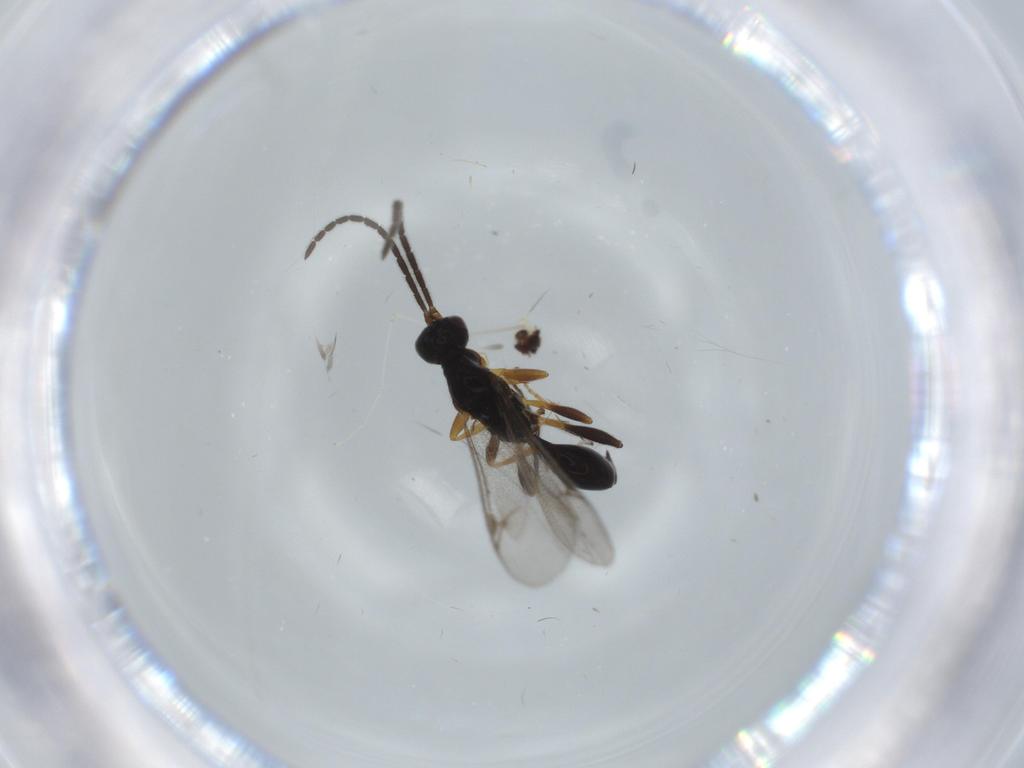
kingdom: Animalia
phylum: Arthropoda
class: Insecta
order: Hymenoptera
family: Proctotrupidae
